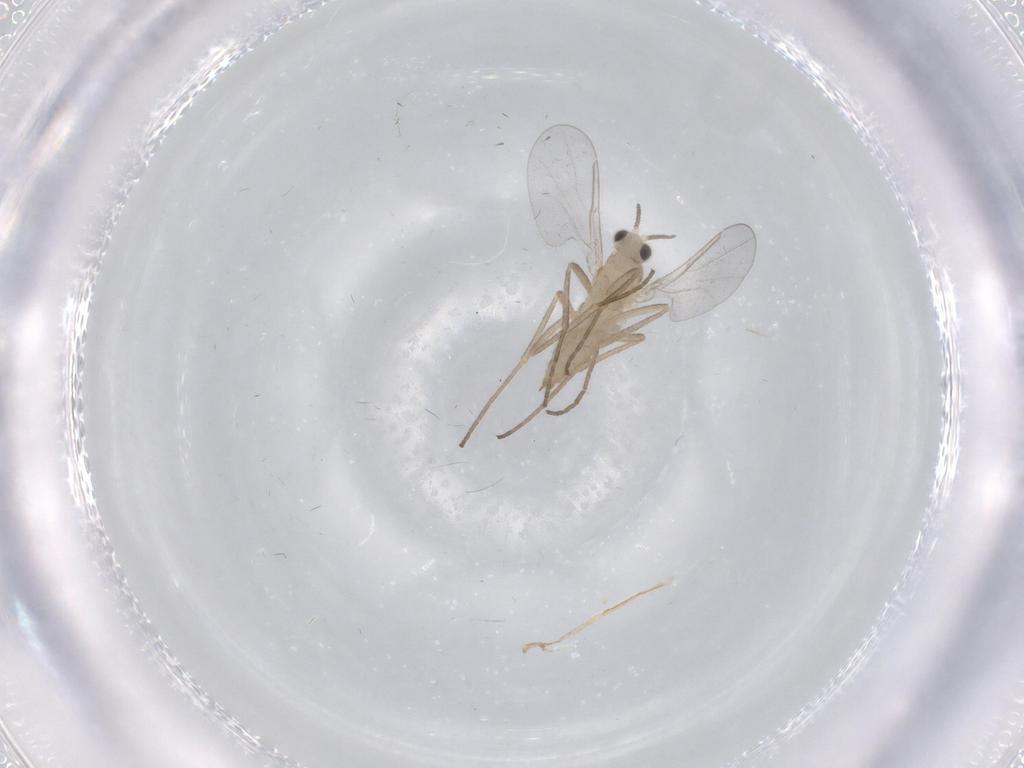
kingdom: Animalia
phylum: Arthropoda
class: Insecta
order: Diptera
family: Cecidomyiidae
